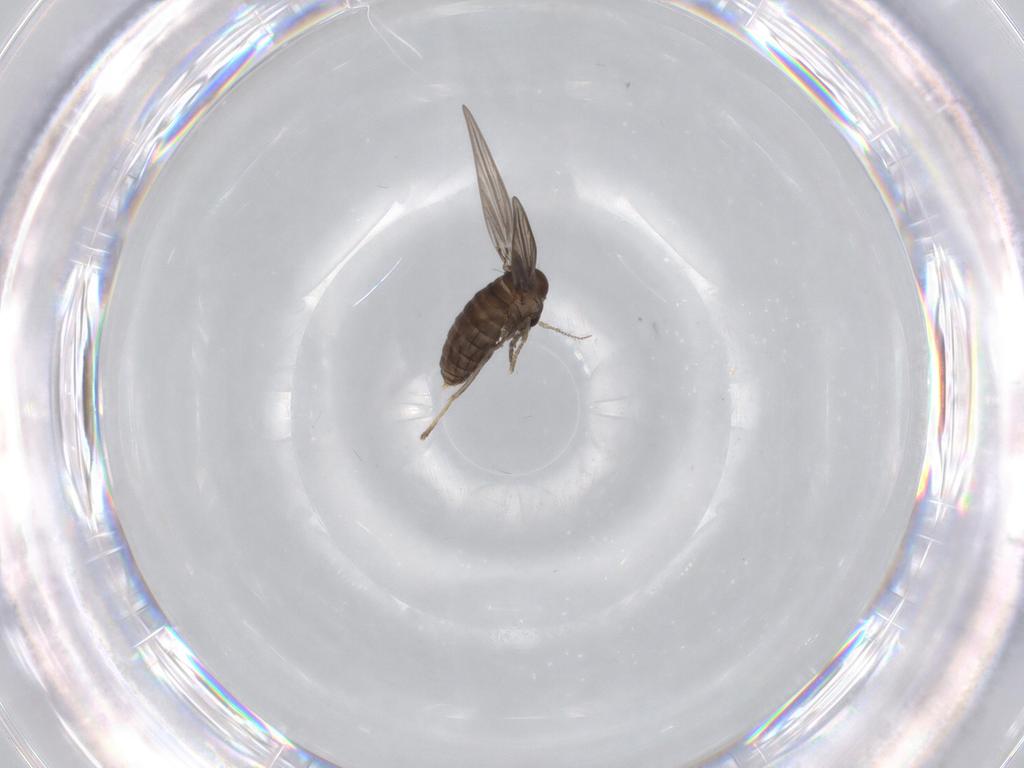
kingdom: Animalia
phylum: Arthropoda
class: Insecta
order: Diptera
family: Psychodidae
